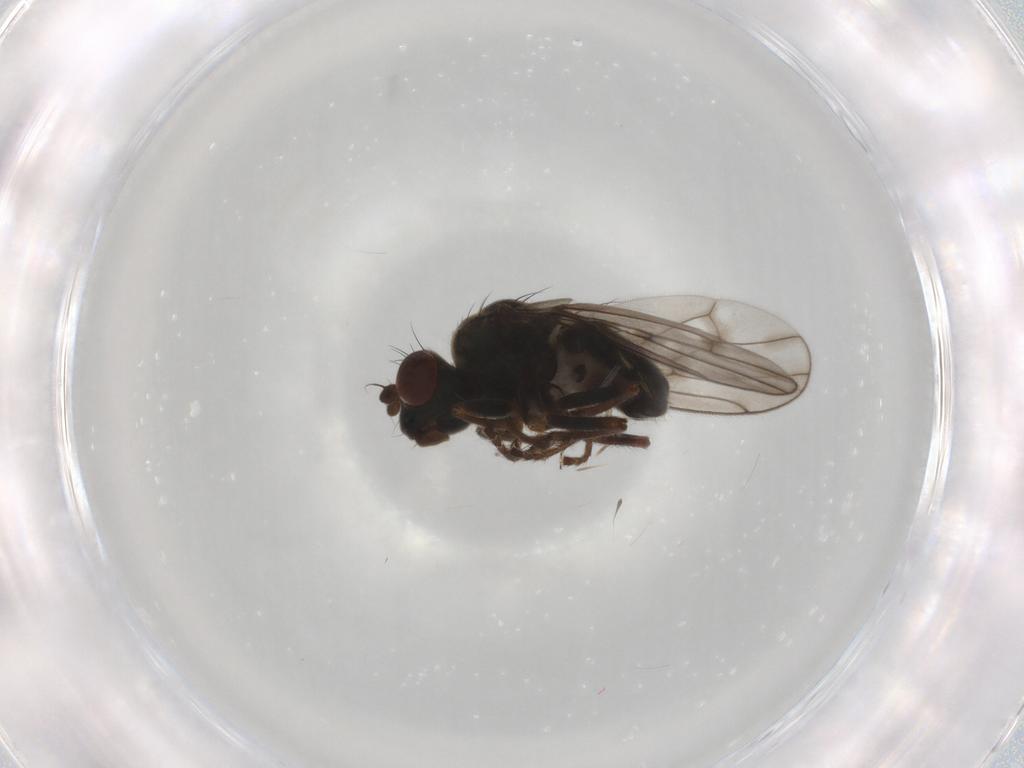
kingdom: Animalia
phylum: Arthropoda
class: Insecta
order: Diptera
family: Ephydridae
